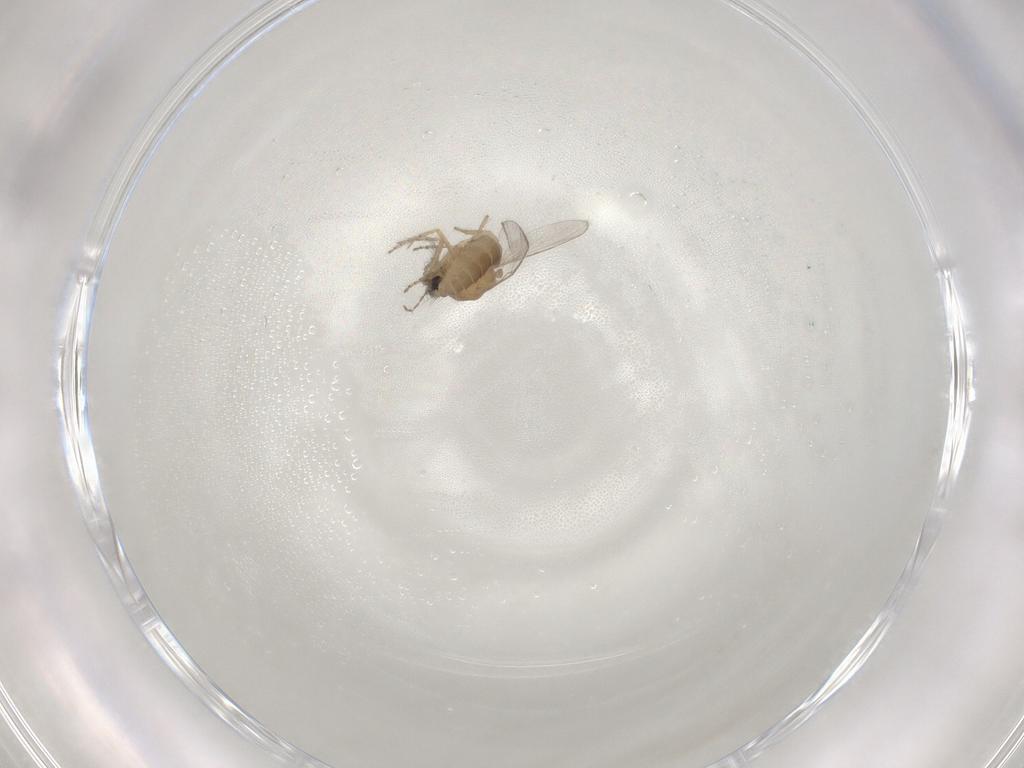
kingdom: Animalia
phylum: Arthropoda
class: Insecta
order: Diptera
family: Ceratopogonidae
